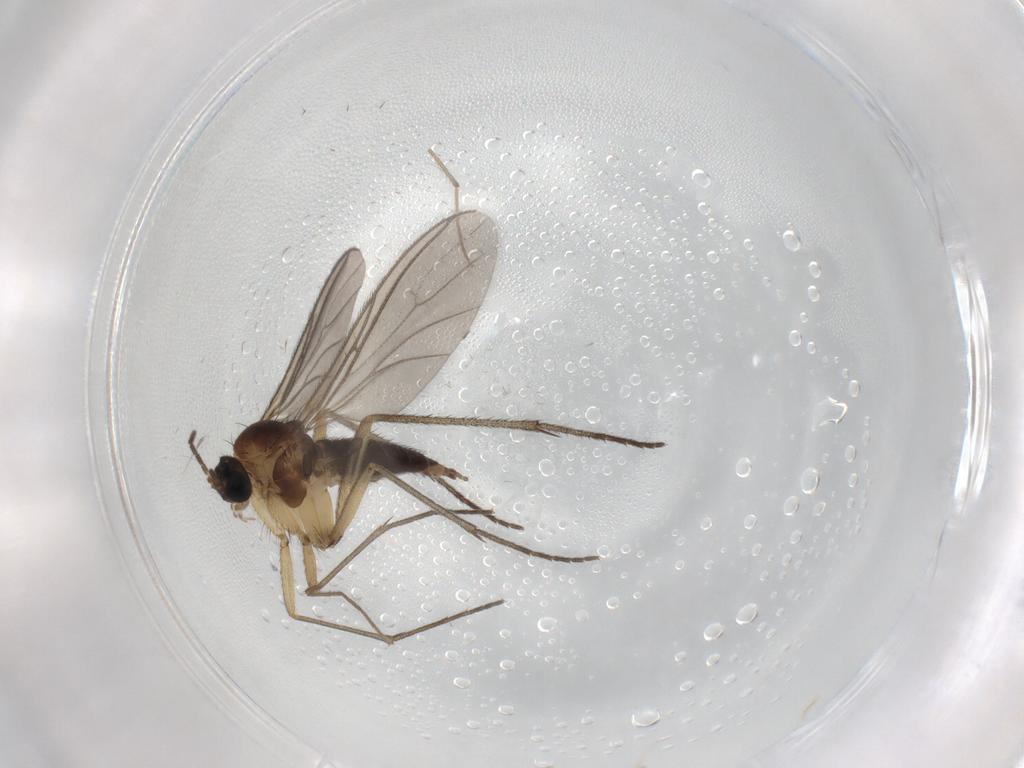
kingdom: Animalia
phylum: Arthropoda
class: Insecta
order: Diptera
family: Sciaridae
